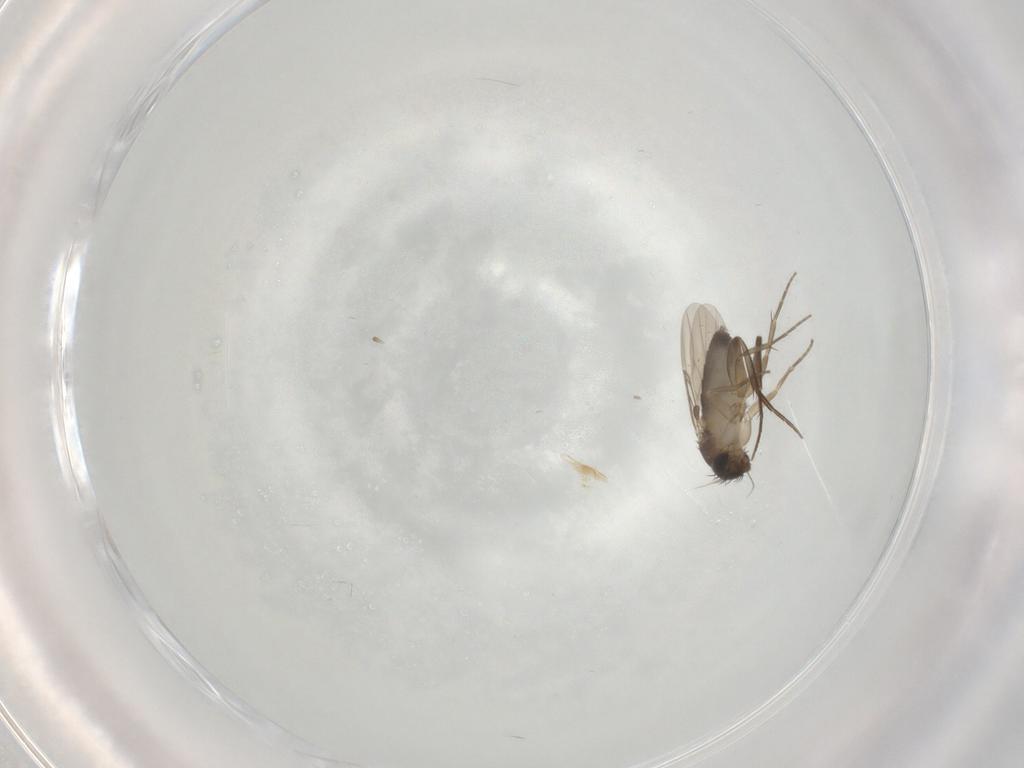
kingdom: Animalia
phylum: Arthropoda
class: Insecta
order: Diptera
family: Phoridae
